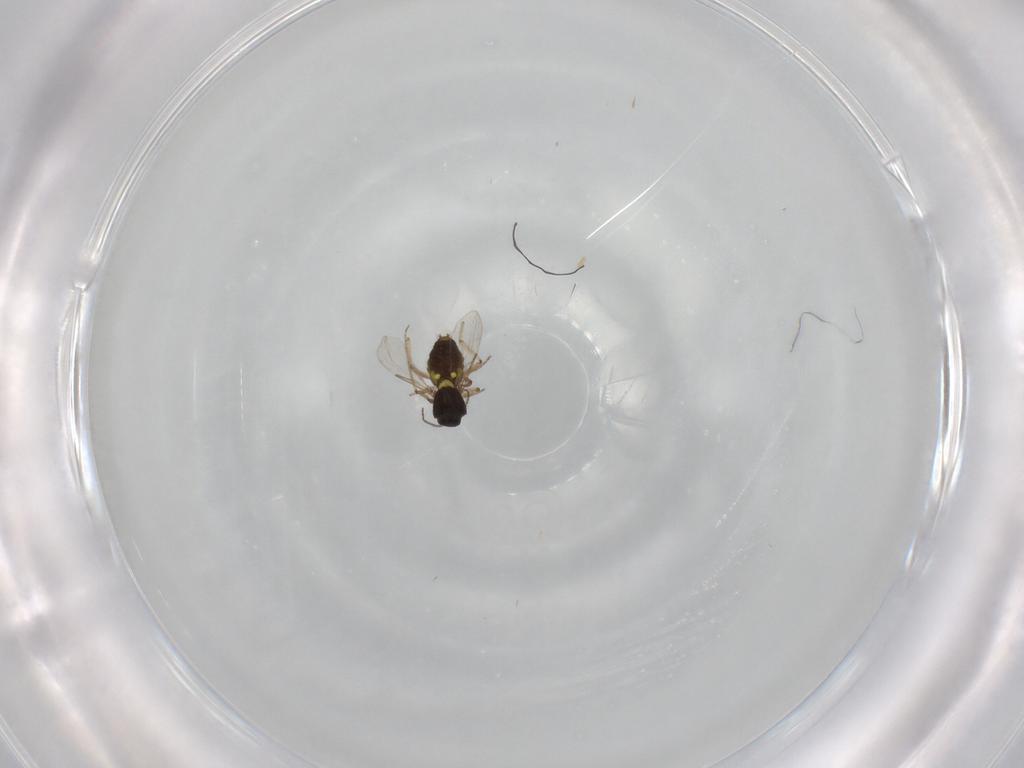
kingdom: Animalia
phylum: Arthropoda
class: Insecta
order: Diptera
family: Ceratopogonidae
